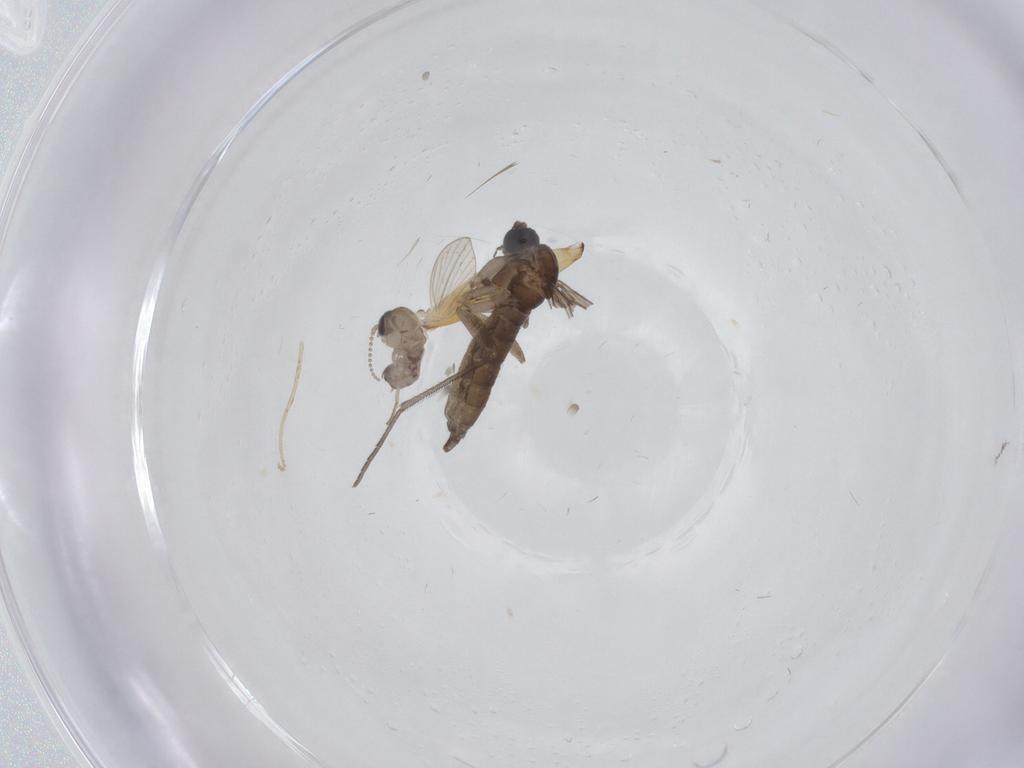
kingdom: Animalia
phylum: Arthropoda
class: Insecta
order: Diptera
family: Sciaridae
